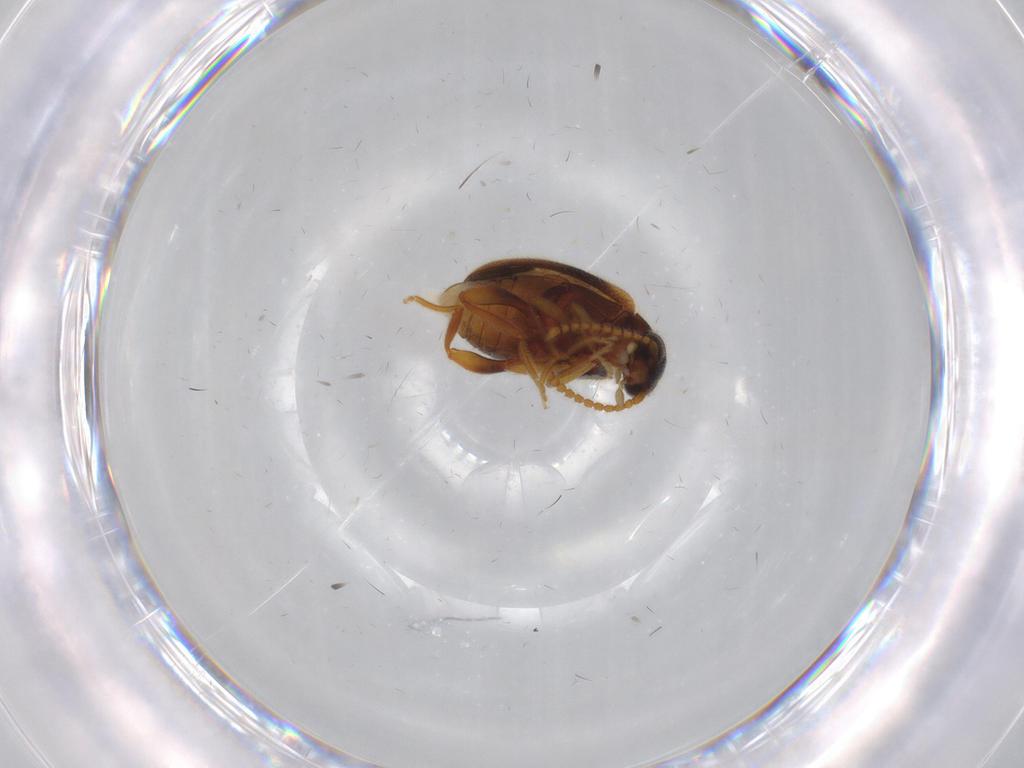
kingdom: Animalia
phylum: Arthropoda
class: Insecta
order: Coleoptera
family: Aderidae
